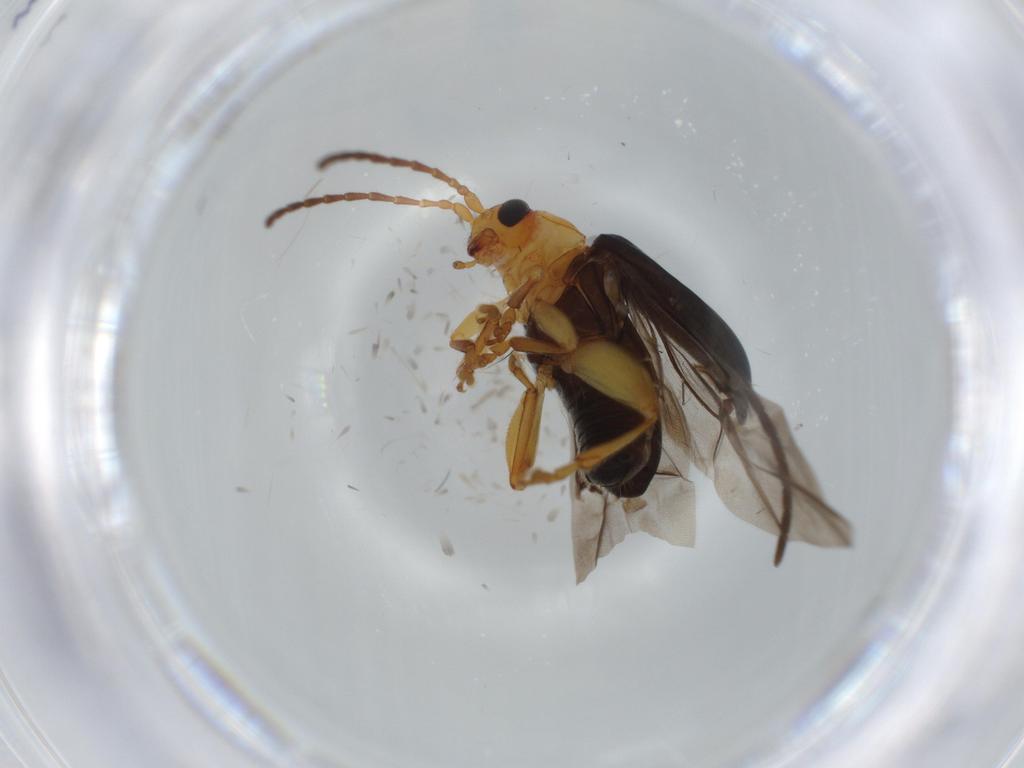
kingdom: Animalia
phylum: Arthropoda
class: Insecta
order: Coleoptera
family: Chrysomelidae
